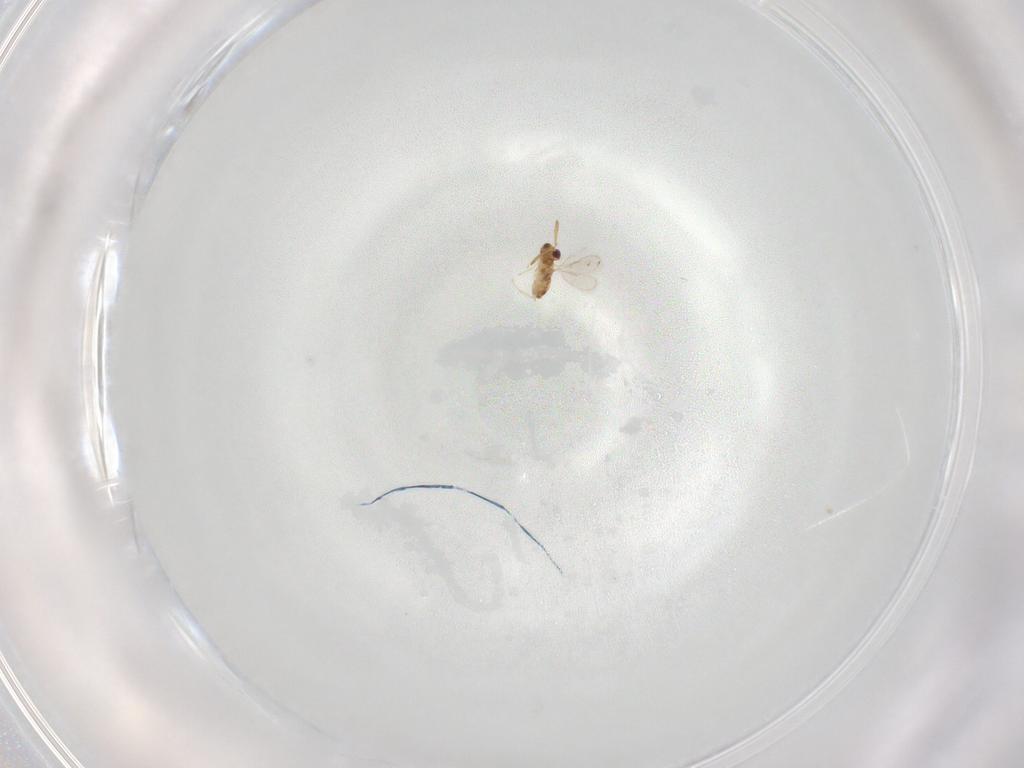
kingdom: Animalia
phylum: Arthropoda
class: Insecta
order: Hymenoptera
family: Aphelinidae
